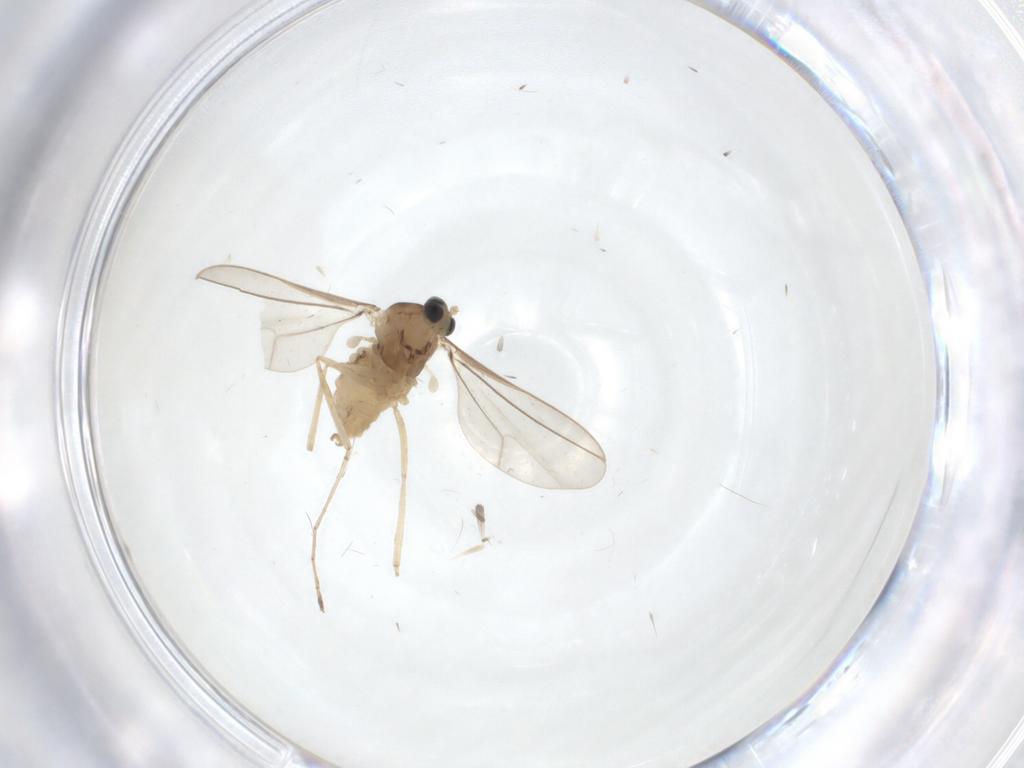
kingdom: Animalia
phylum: Arthropoda
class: Insecta
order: Diptera
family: Cecidomyiidae
